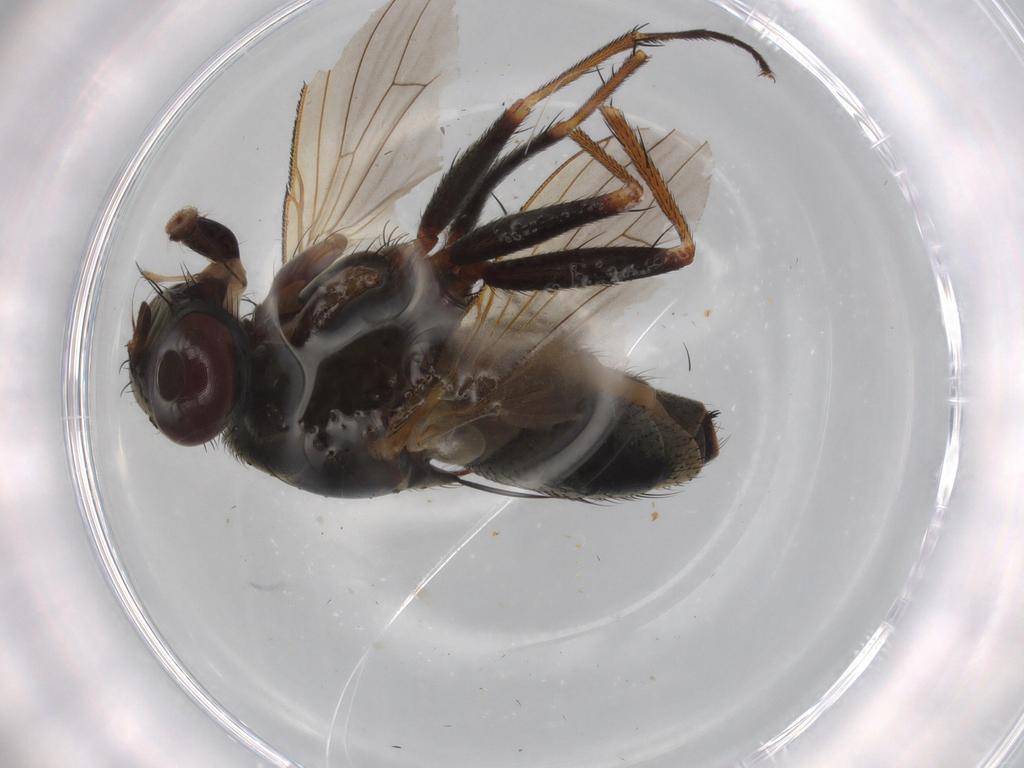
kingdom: Animalia
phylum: Arthropoda
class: Insecta
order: Diptera
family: Muscidae
